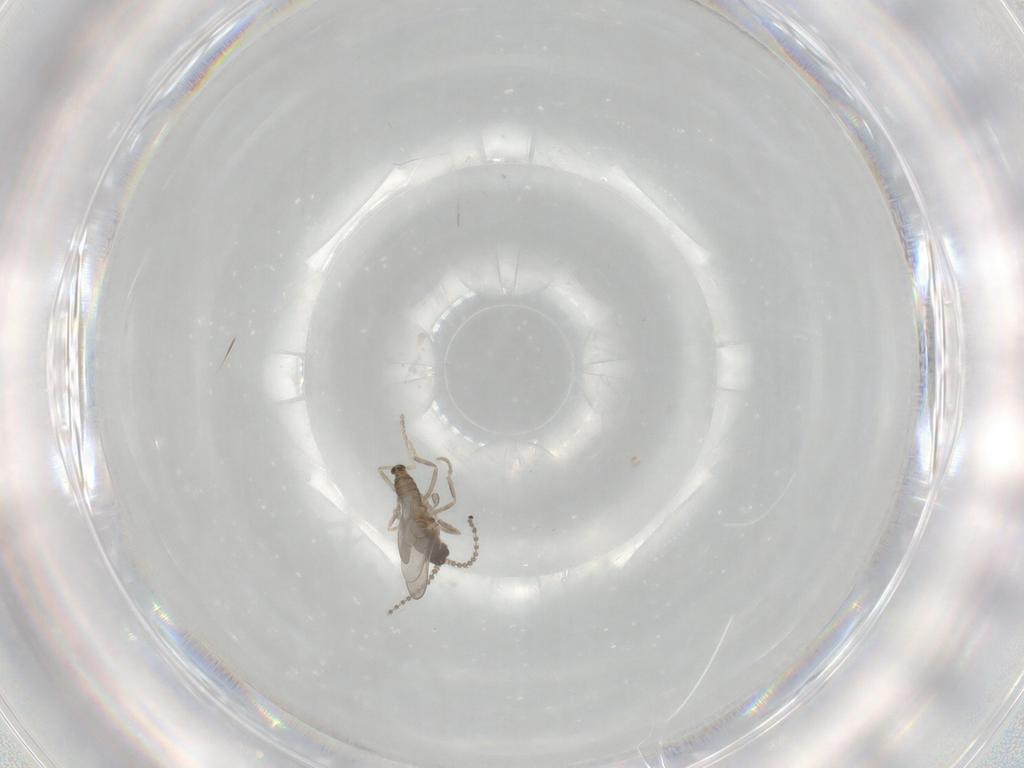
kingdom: Animalia
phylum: Arthropoda
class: Insecta
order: Diptera
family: Cecidomyiidae
